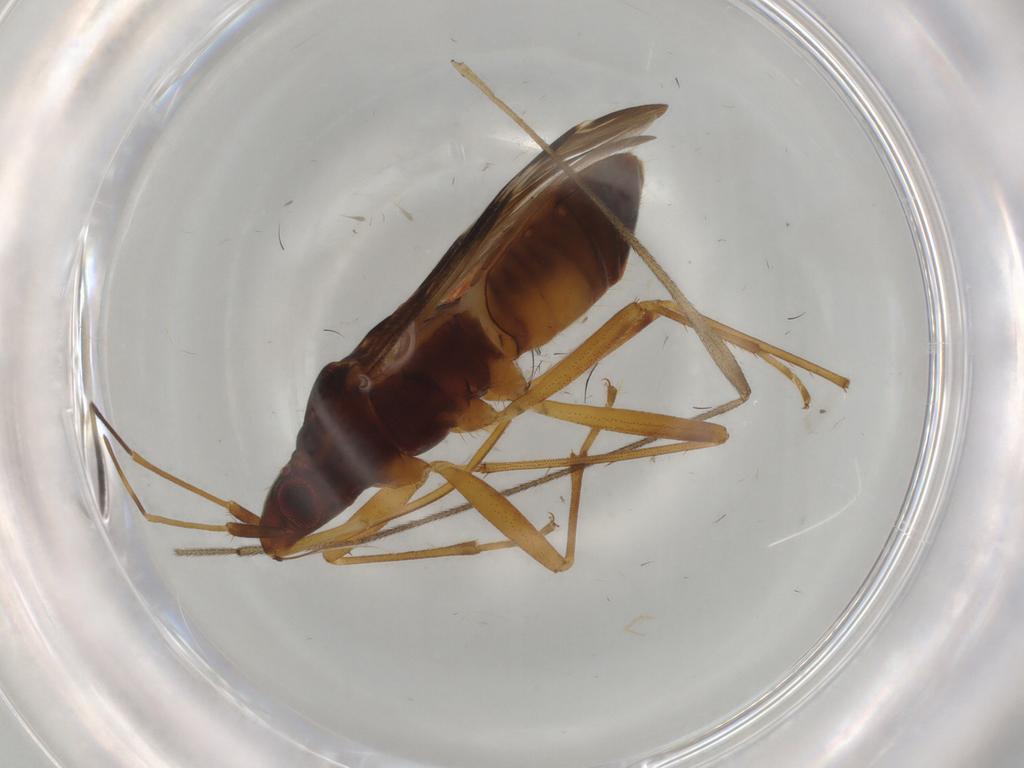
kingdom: Animalia
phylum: Arthropoda
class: Insecta
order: Hemiptera
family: Rhyparochromidae
